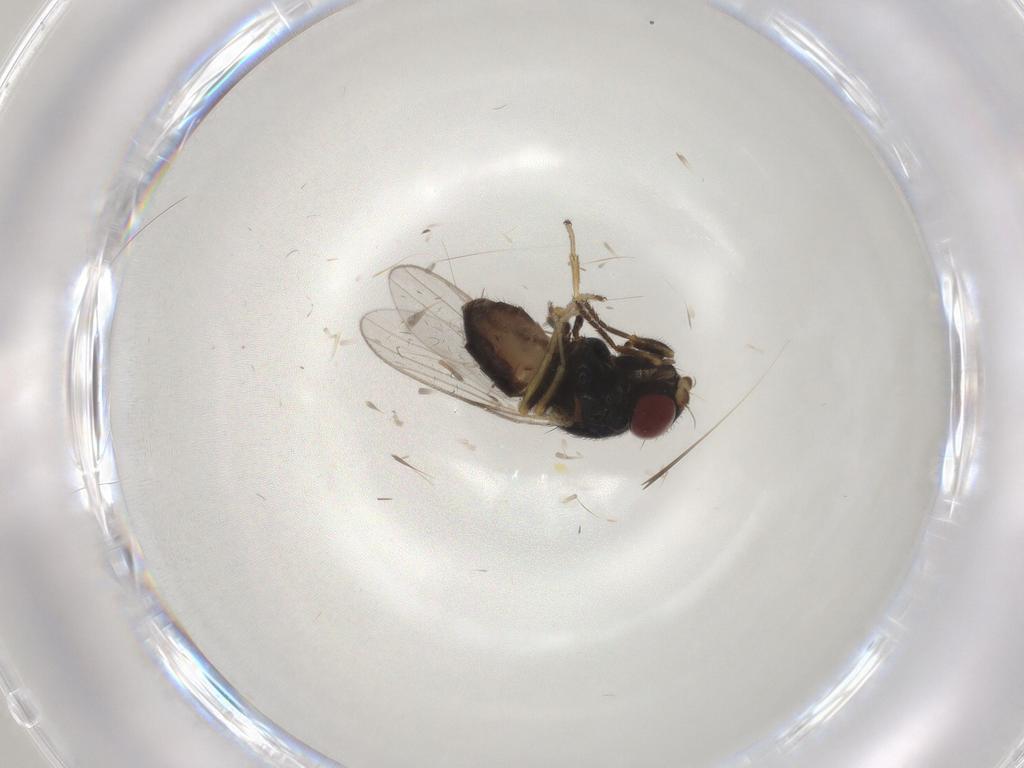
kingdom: Animalia
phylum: Arthropoda
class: Insecta
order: Diptera
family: Chloropidae
